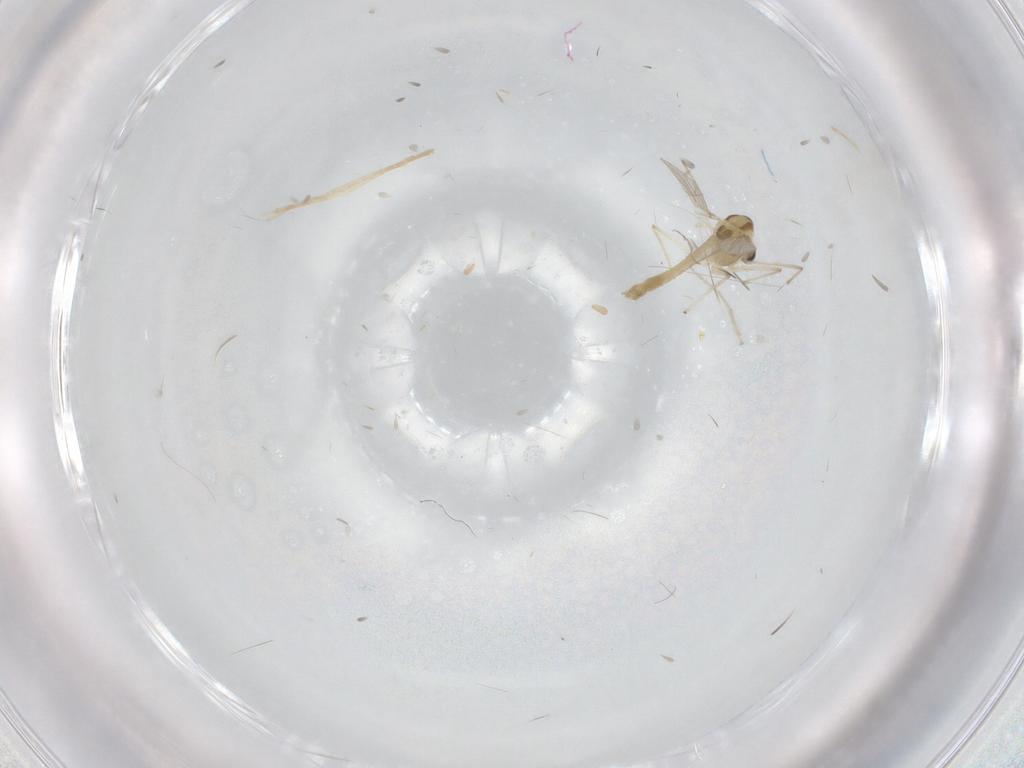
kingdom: Animalia
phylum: Arthropoda
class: Insecta
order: Diptera
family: Chironomidae
